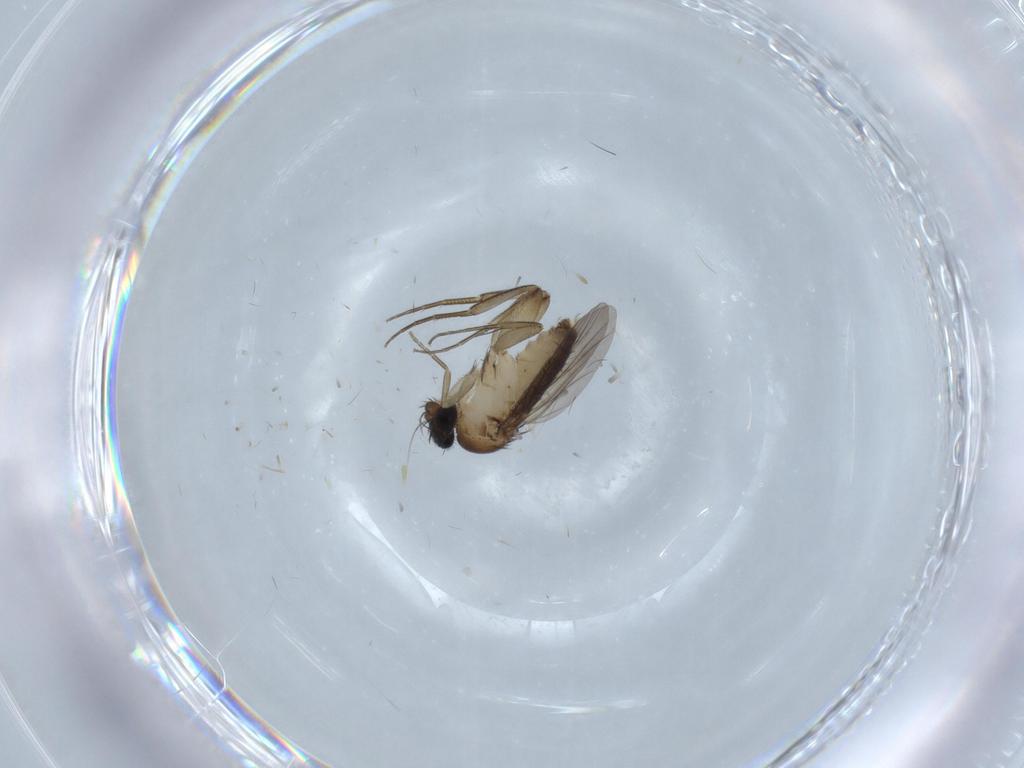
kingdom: Animalia
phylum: Arthropoda
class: Insecta
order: Diptera
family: Phoridae
